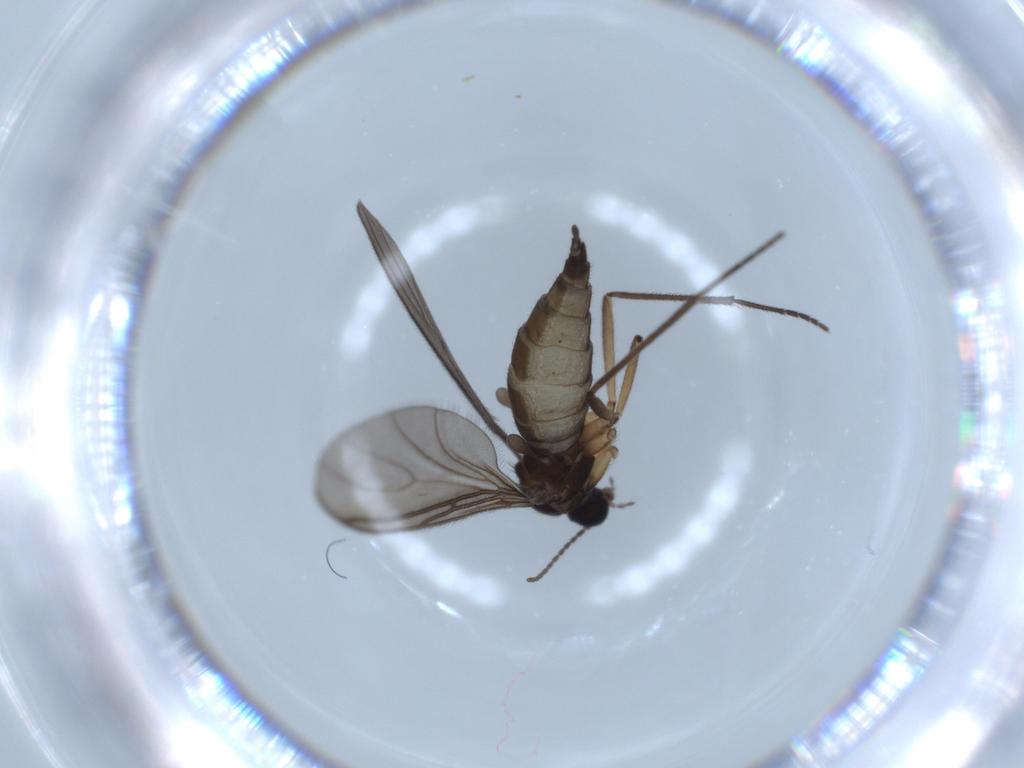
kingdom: Animalia
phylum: Arthropoda
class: Insecta
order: Diptera
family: Sciaridae
